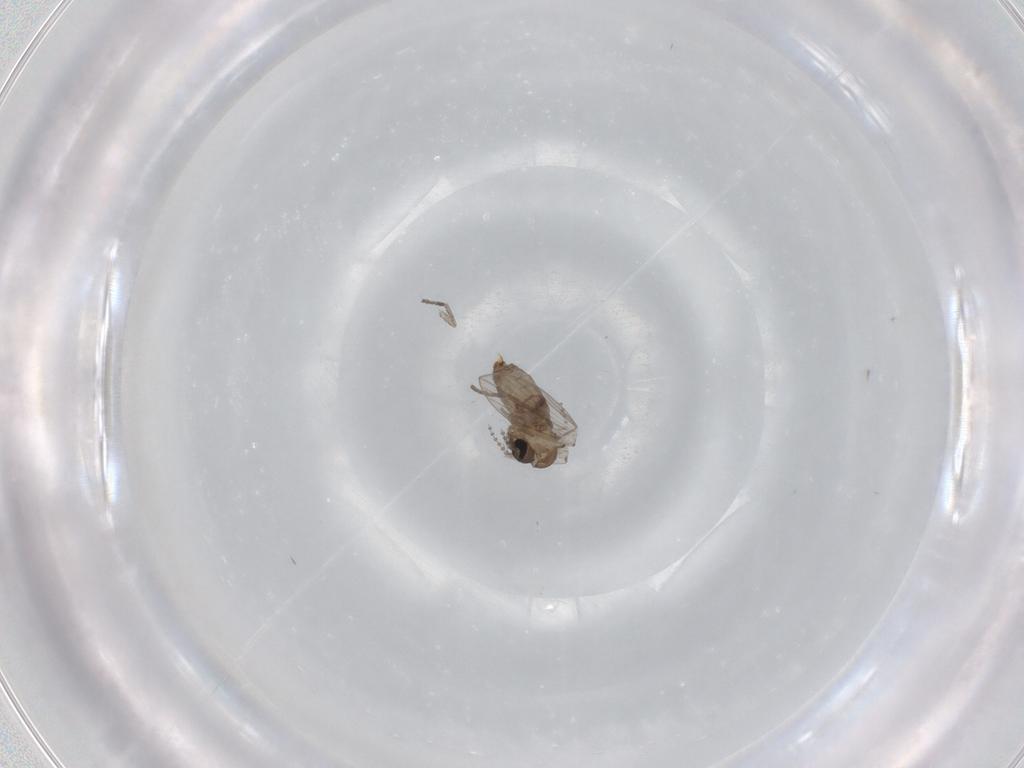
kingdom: Animalia
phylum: Arthropoda
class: Insecta
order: Diptera
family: Psychodidae
